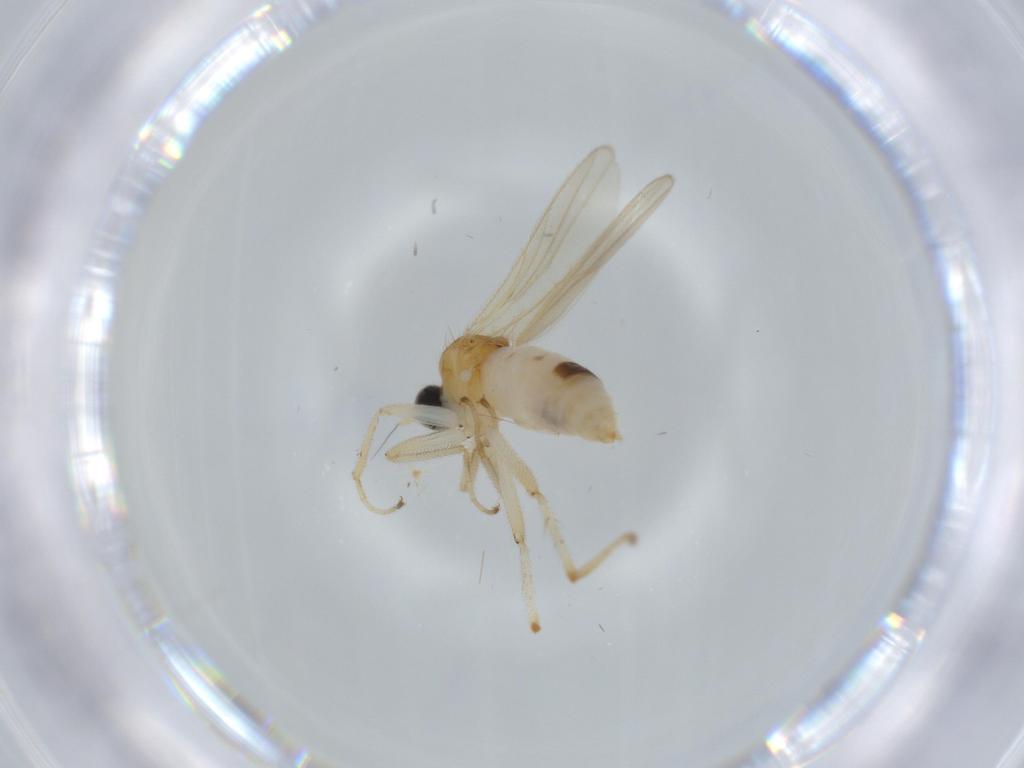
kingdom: Animalia
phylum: Arthropoda
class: Insecta
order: Diptera
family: Hybotidae
